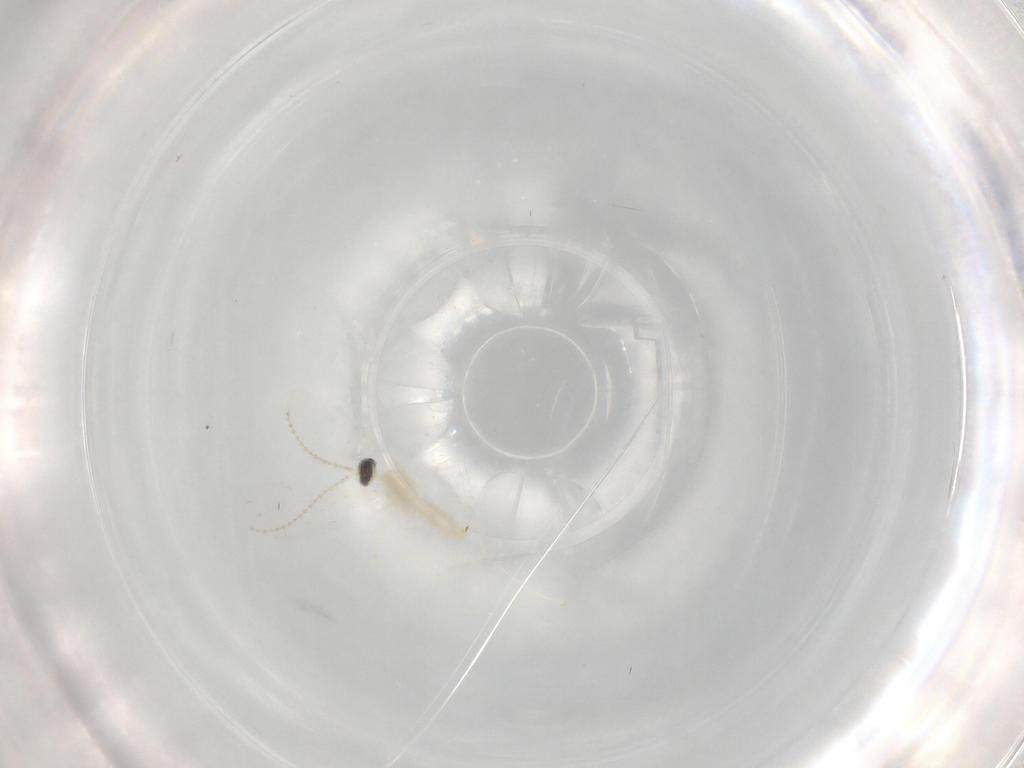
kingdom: Animalia
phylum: Arthropoda
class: Insecta
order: Diptera
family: Cecidomyiidae
